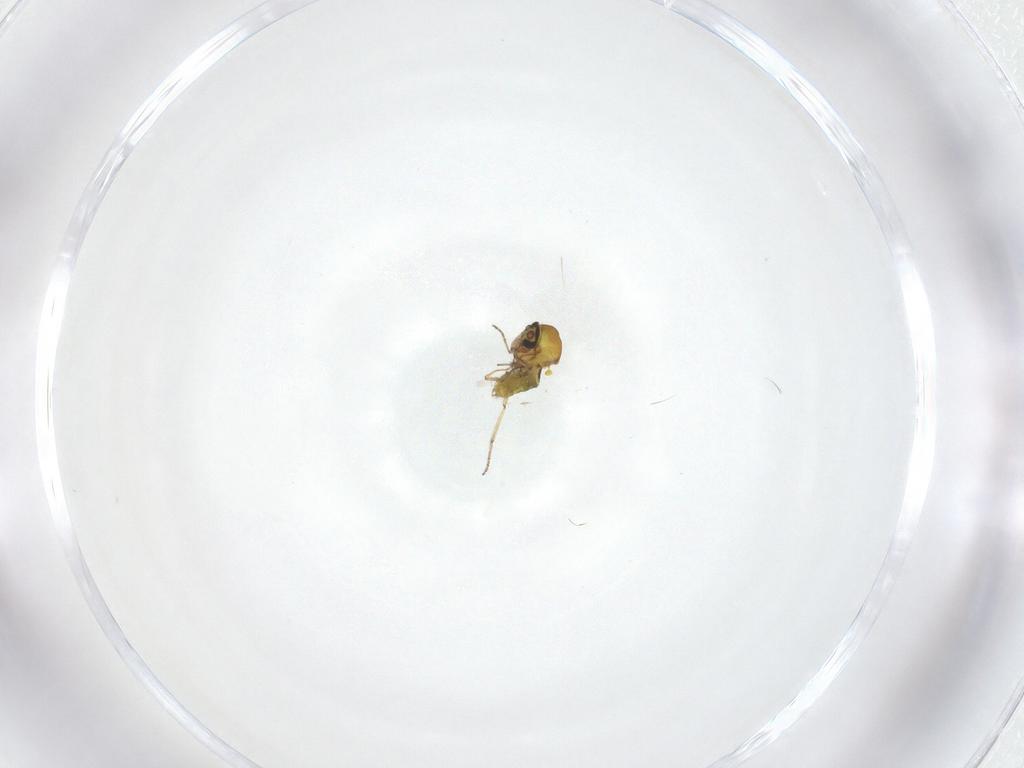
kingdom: Animalia
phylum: Arthropoda
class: Insecta
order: Diptera
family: Ceratopogonidae
